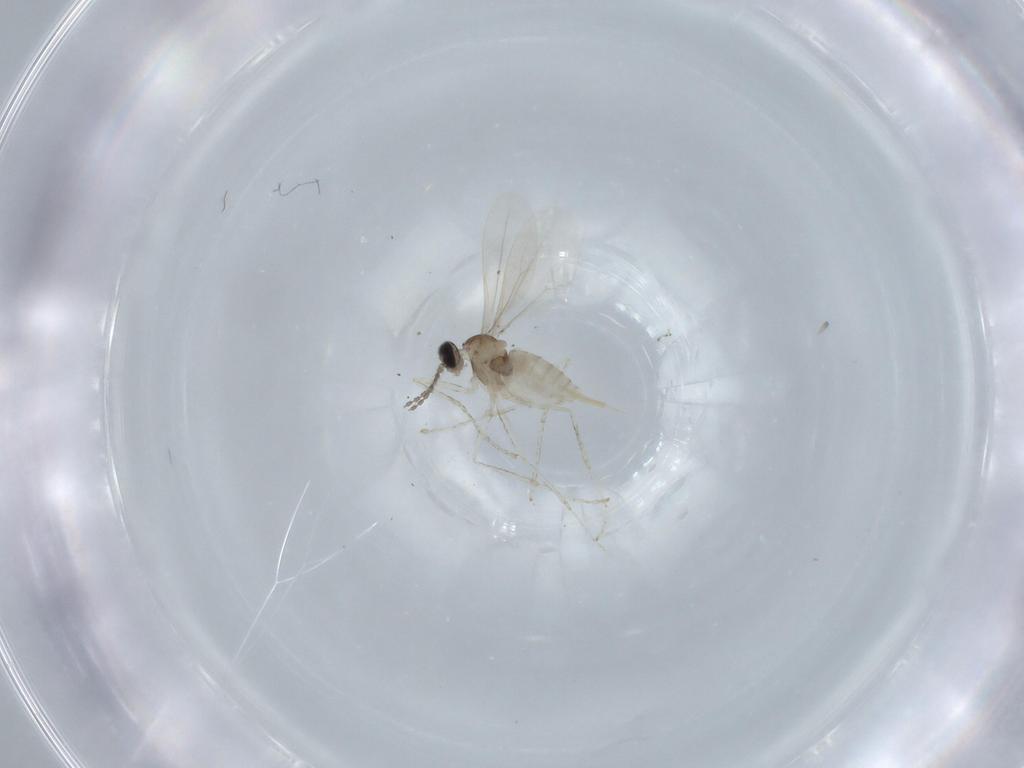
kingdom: Animalia
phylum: Arthropoda
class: Insecta
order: Diptera
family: Cecidomyiidae
